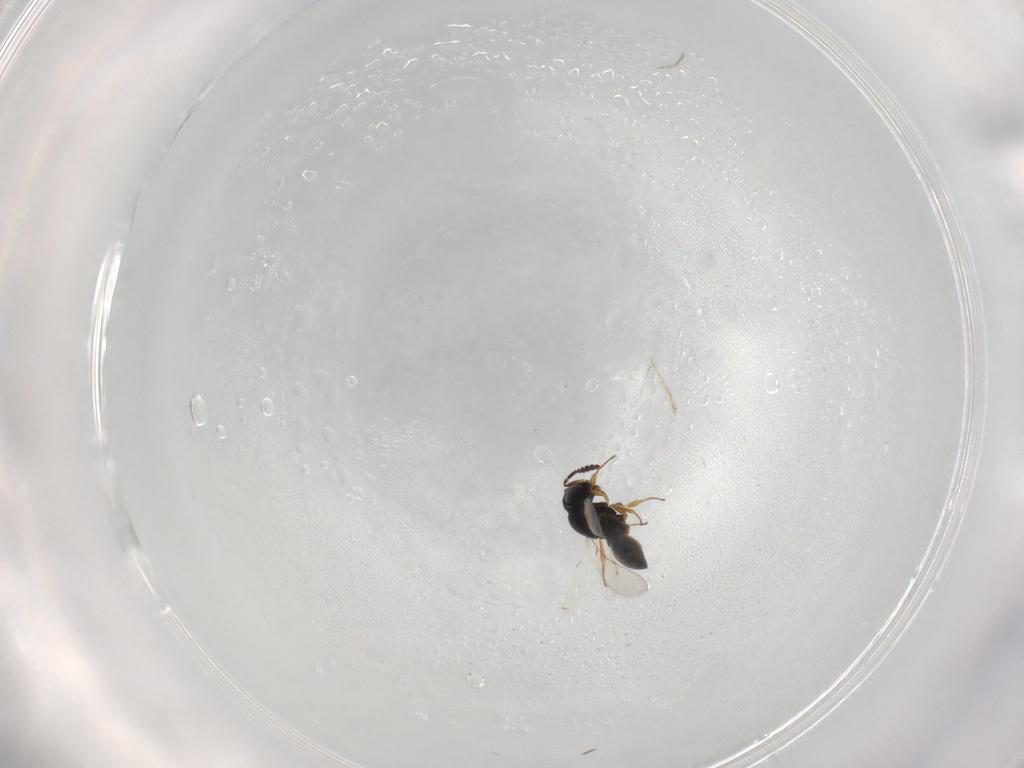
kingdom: Animalia
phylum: Arthropoda
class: Insecta
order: Hymenoptera
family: Scelionidae
